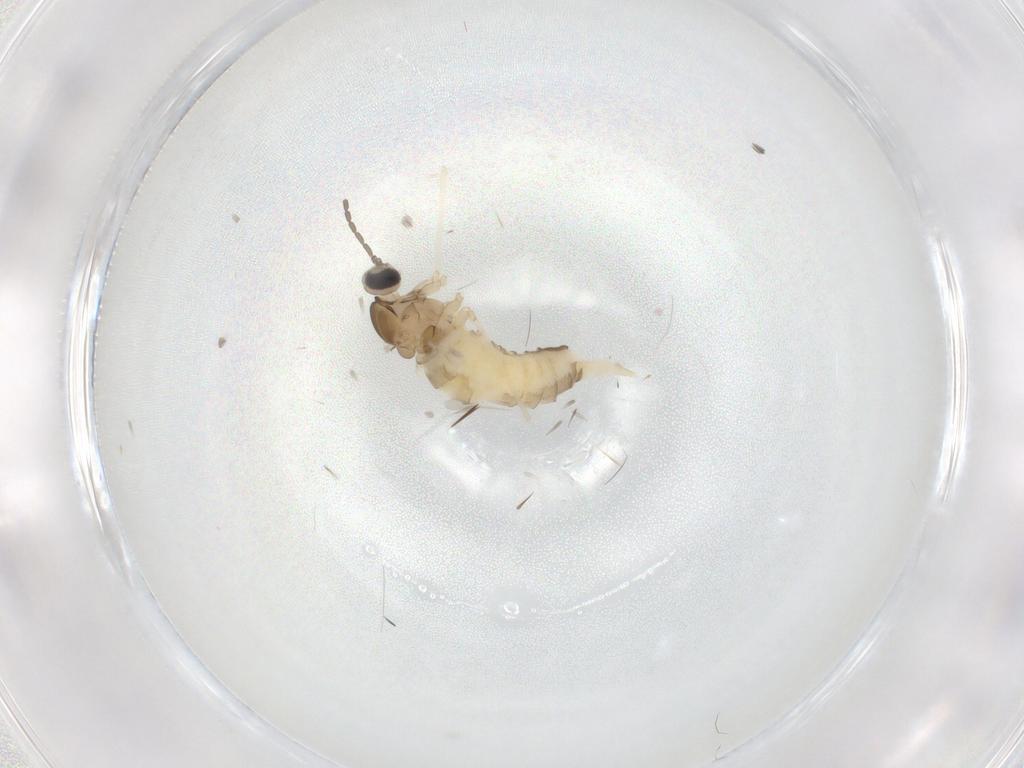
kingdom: Animalia
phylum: Arthropoda
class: Insecta
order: Diptera
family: Cecidomyiidae
